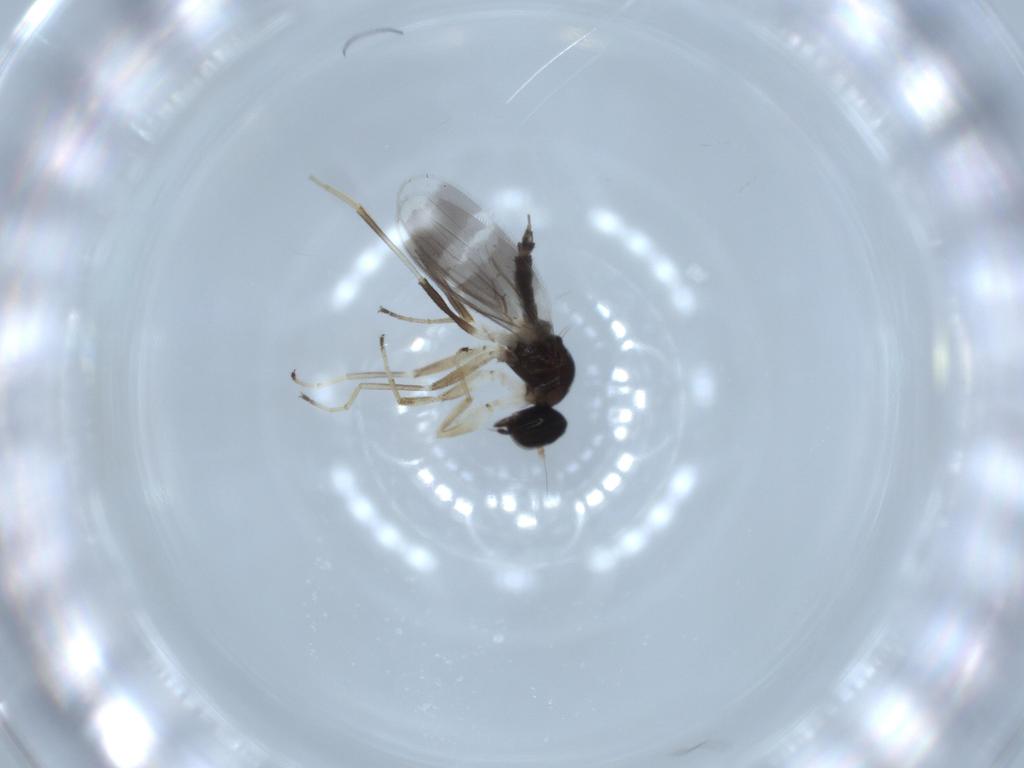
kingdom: Animalia
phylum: Arthropoda
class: Insecta
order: Diptera
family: Hybotidae
